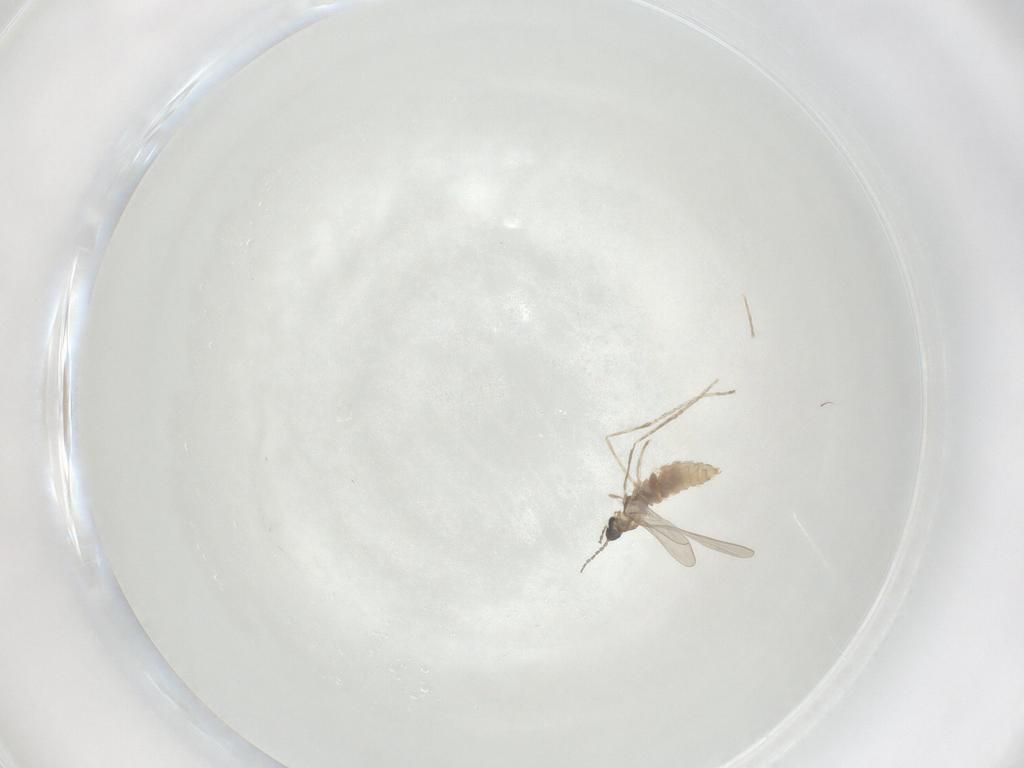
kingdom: Animalia
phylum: Arthropoda
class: Insecta
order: Diptera
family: Cecidomyiidae
